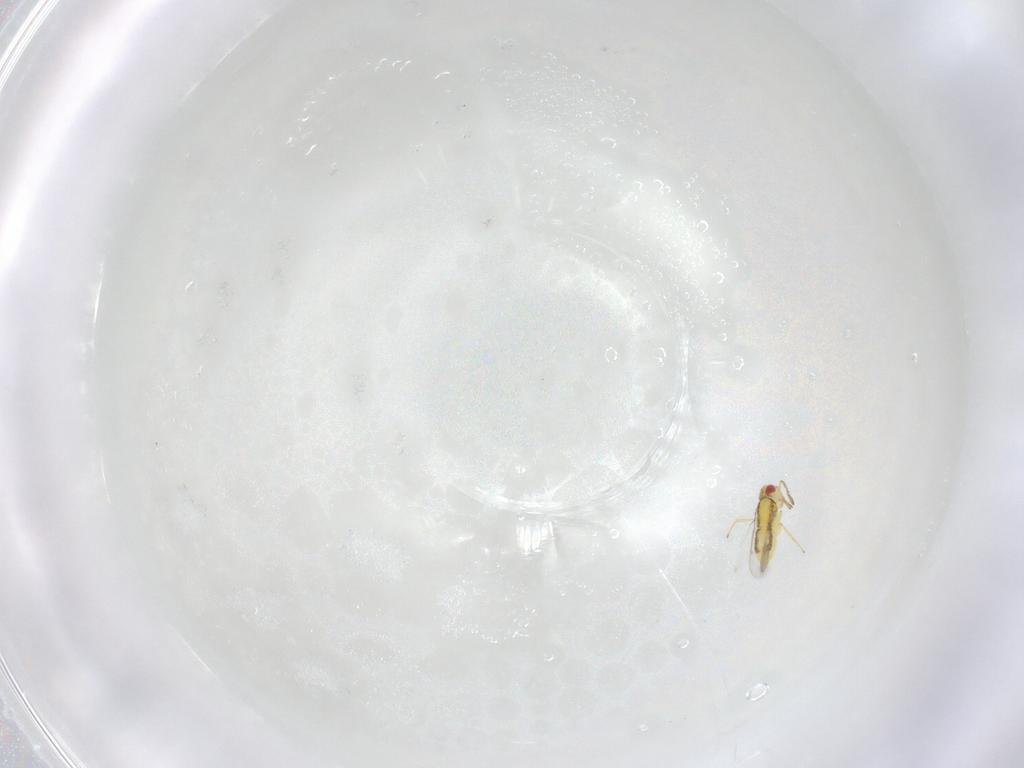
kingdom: Animalia
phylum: Arthropoda
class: Insecta
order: Hymenoptera
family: Aphelinidae
